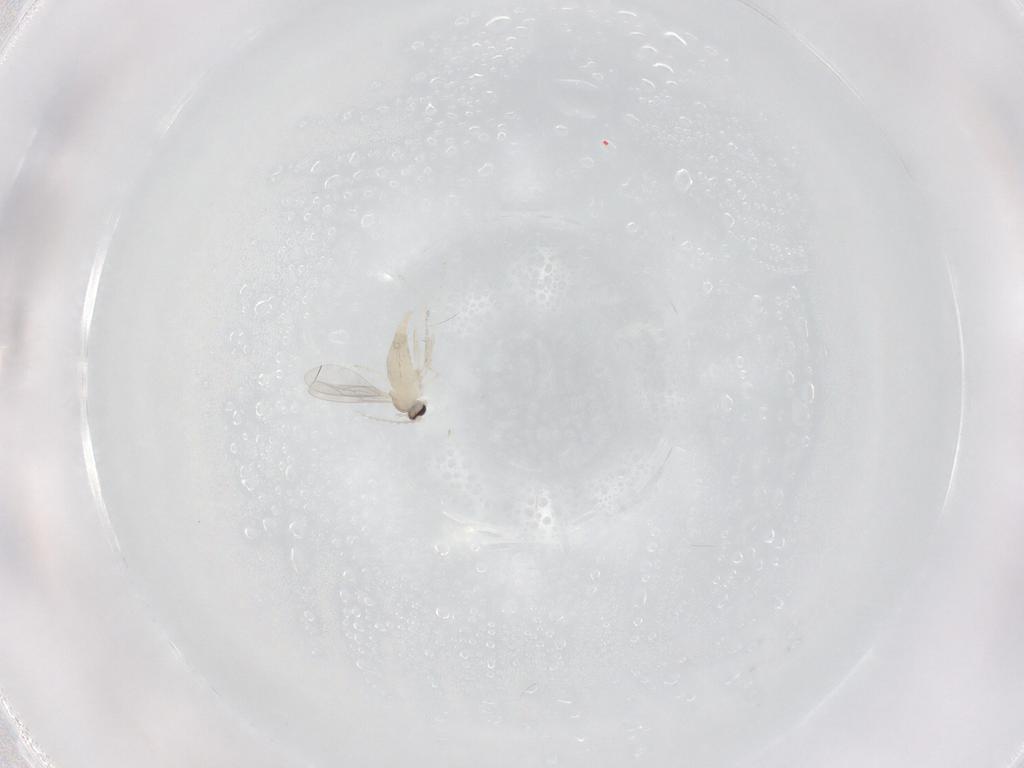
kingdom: Animalia
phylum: Arthropoda
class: Insecta
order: Diptera
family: Cecidomyiidae
